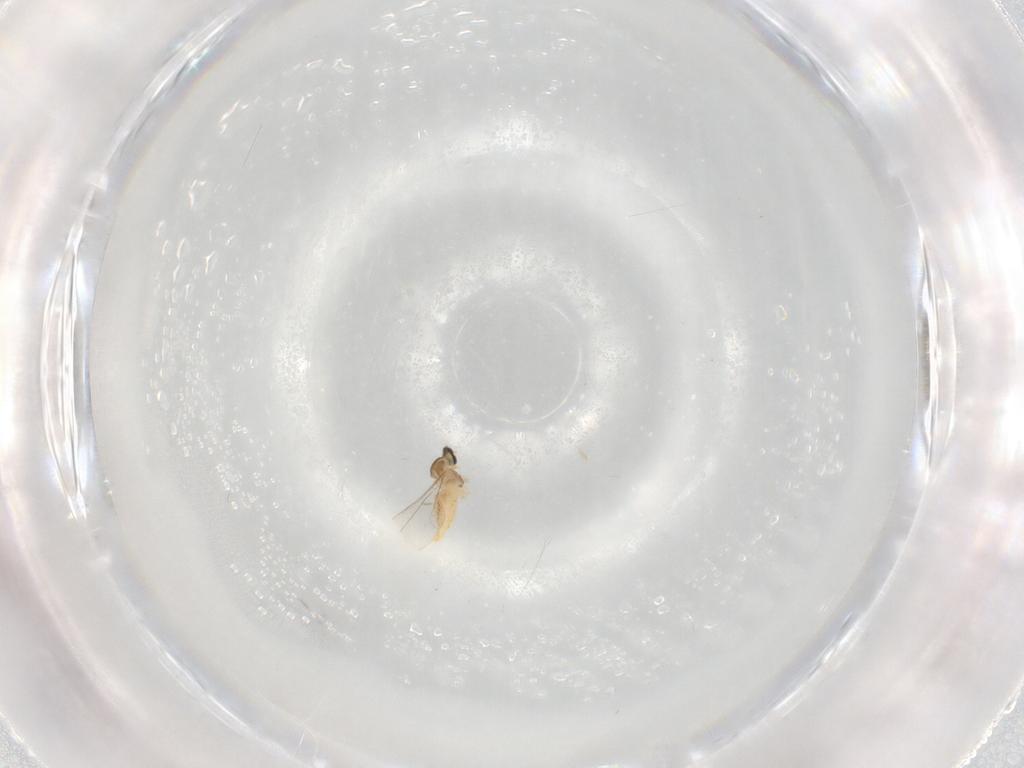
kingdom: Animalia
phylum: Arthropoda
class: Insecta
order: Diptera
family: Cecidomyiidae
